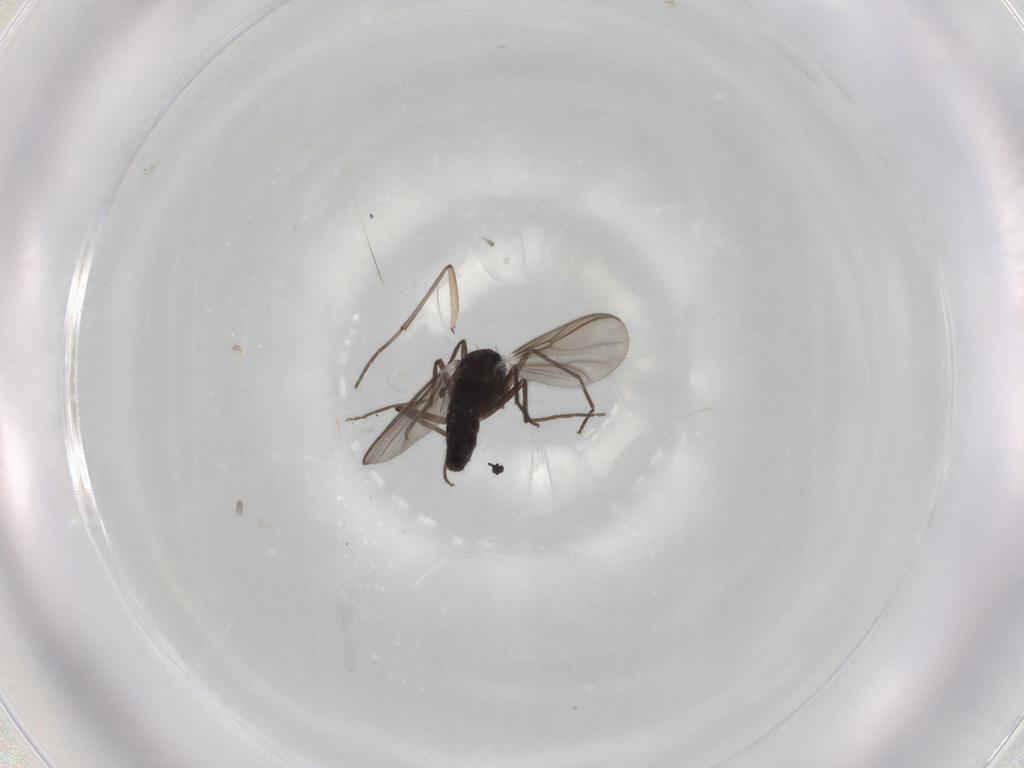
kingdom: Animalia
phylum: Arthropoda
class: Insecta
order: Diptera
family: Chironomidae
